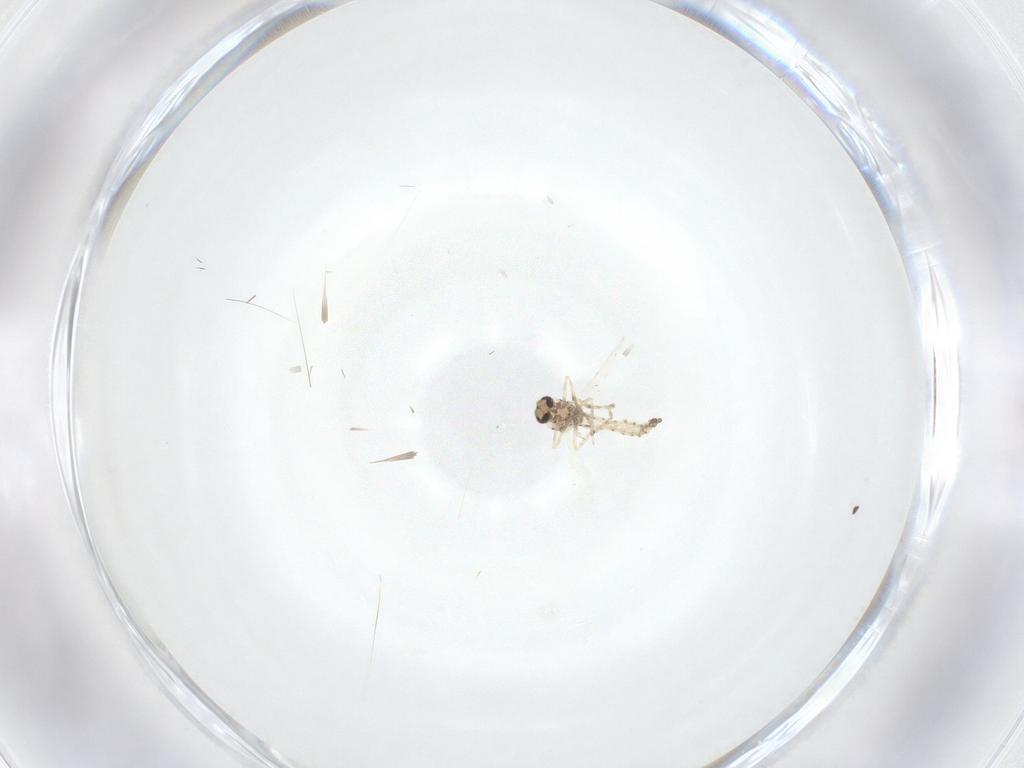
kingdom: Animalia
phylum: Arthropoda
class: Insecta
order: Diptera
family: Ceratopogonidae
